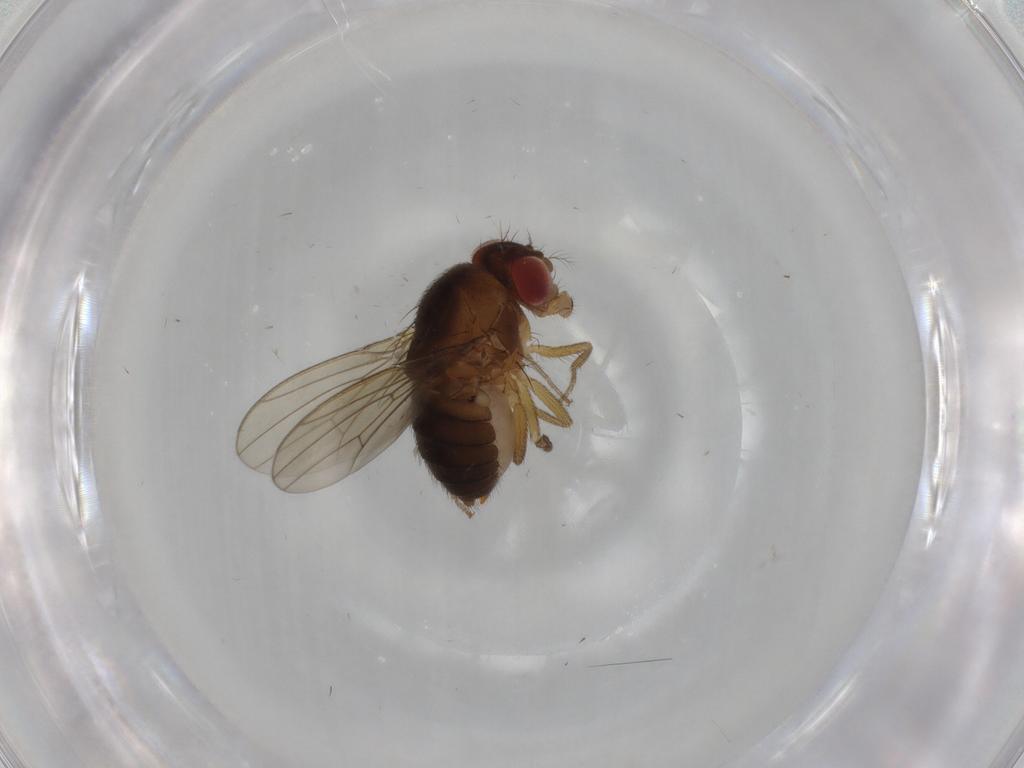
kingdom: Animalia
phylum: Arthropoda
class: Insecta
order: Diptera
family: Drosophilidae
